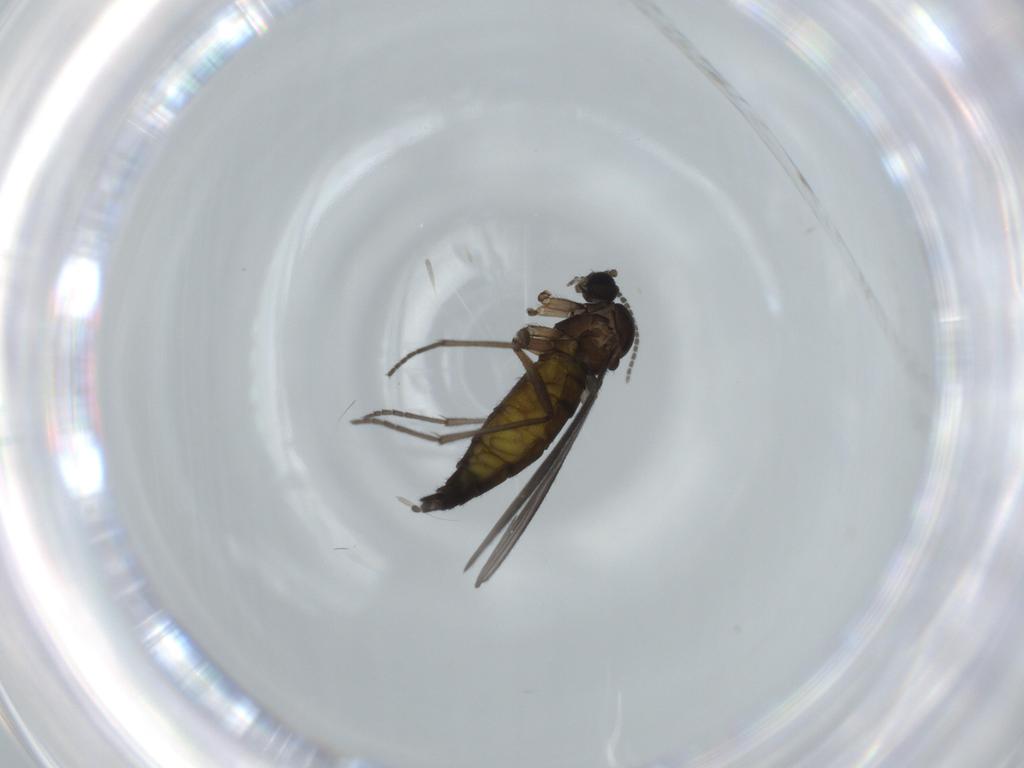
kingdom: Animalia
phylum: Arthropoda
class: Insecta
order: Diptera
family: Sciaridae
